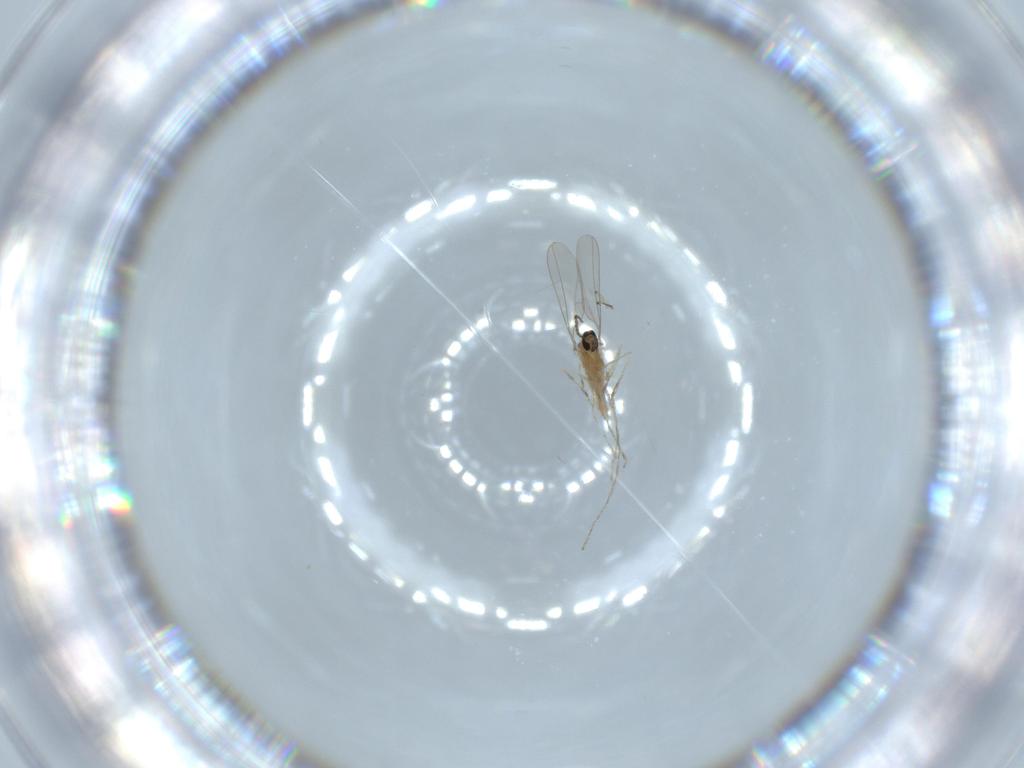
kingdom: Animalia
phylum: Arthropoda
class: Insecta
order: Diptera
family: Cecidomyiidae
